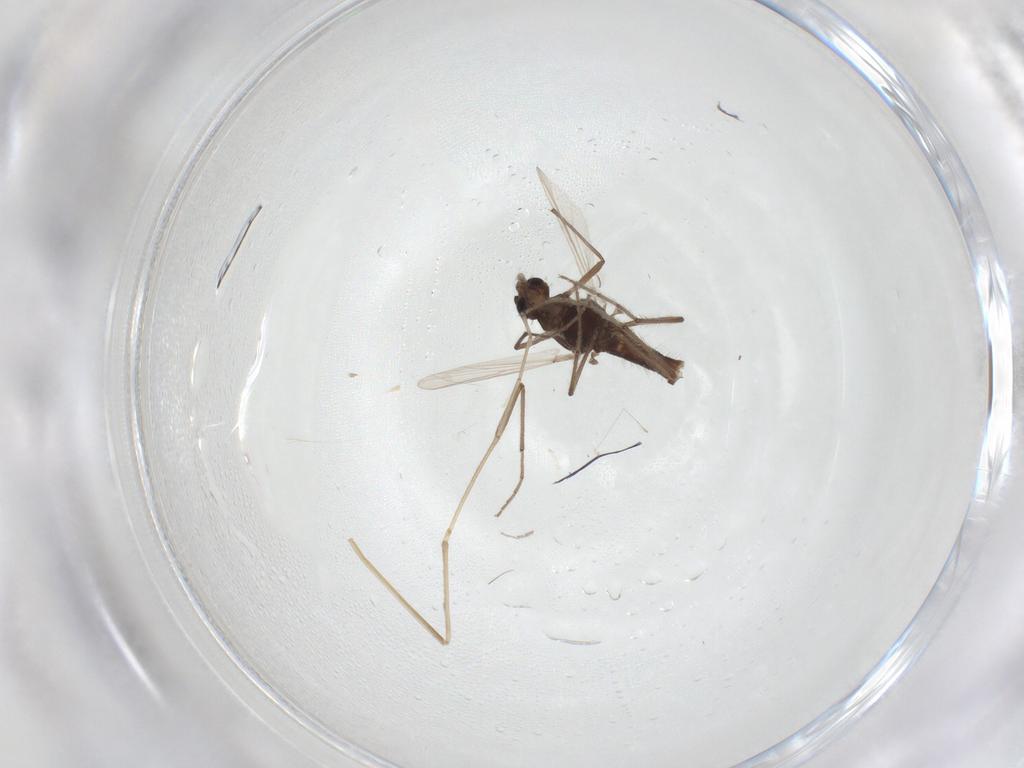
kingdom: Animalia
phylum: Arthropoda
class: Insecta
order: Diptera
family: Chironomidae
